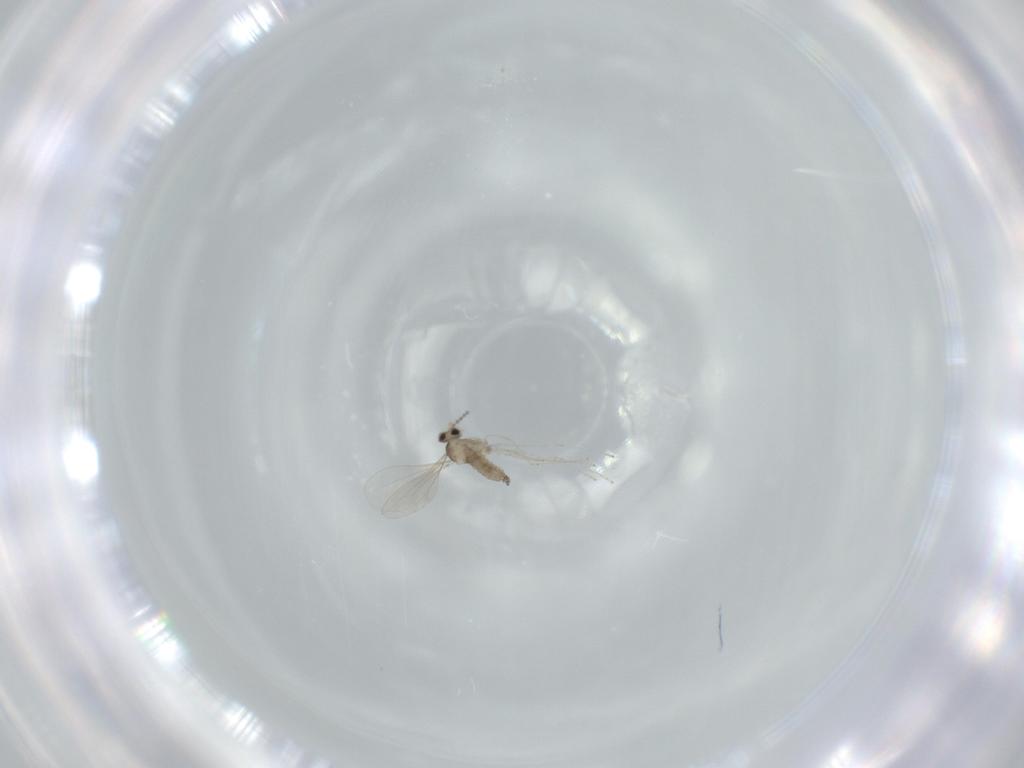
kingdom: Animalia
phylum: Arthropoda
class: Insecta
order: Diptera
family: Cecidomyiidae
